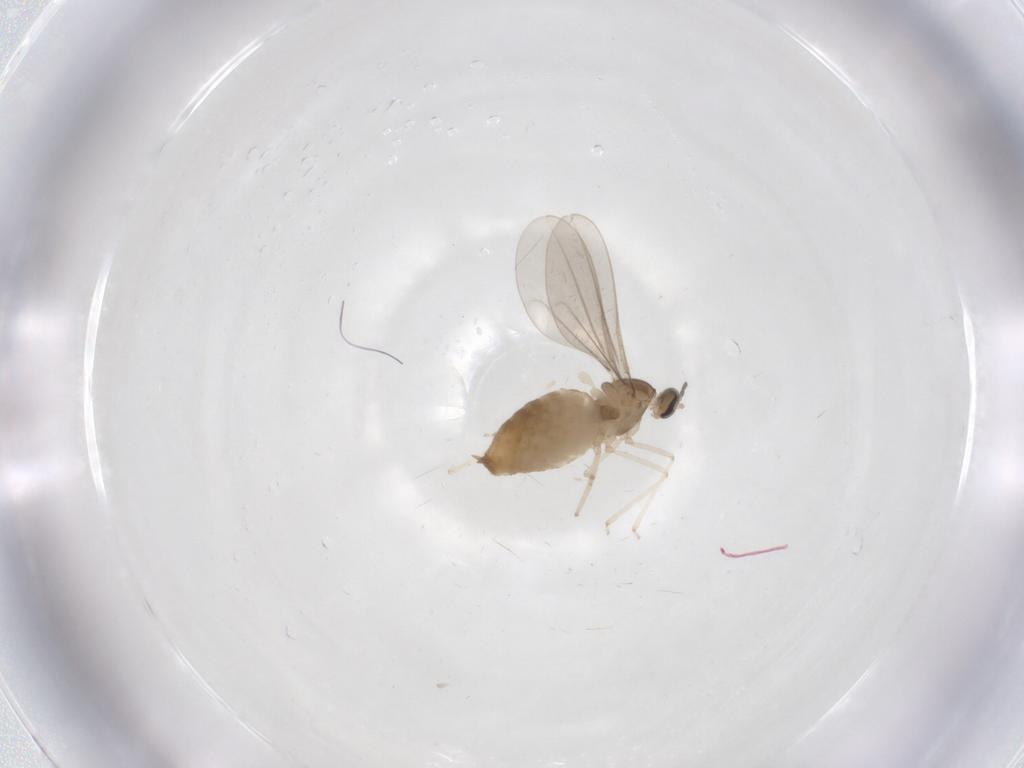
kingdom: Animalia
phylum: Arthropoda
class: Insecta
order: Diptera
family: Cecidomyiidae
